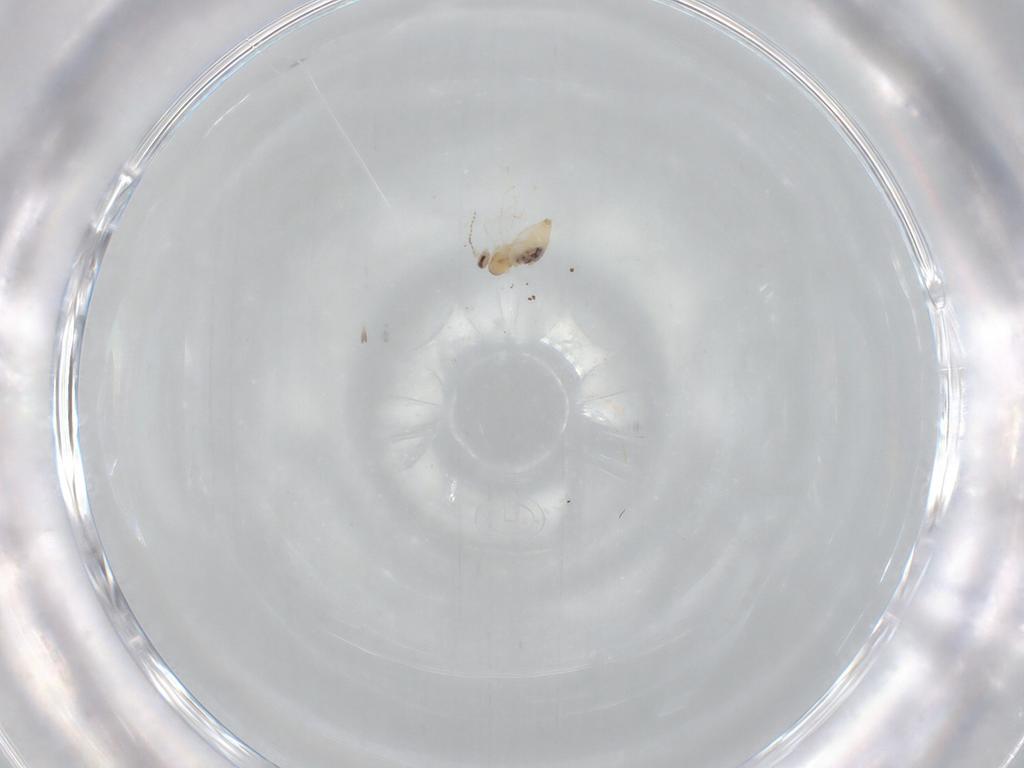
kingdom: Animalia
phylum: Arthropoda
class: Insecta
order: Diptera
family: Cecidomyiidae
